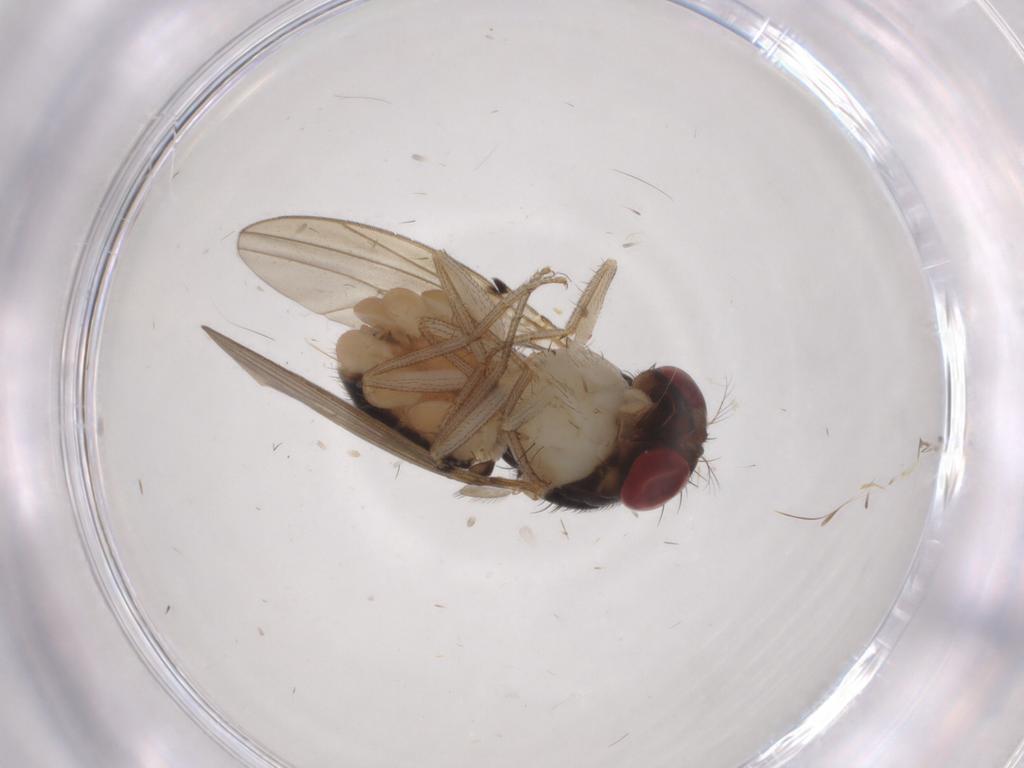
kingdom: Animalia
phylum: Arthropoda
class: Insecta
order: Diptera
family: Drosophilidae
